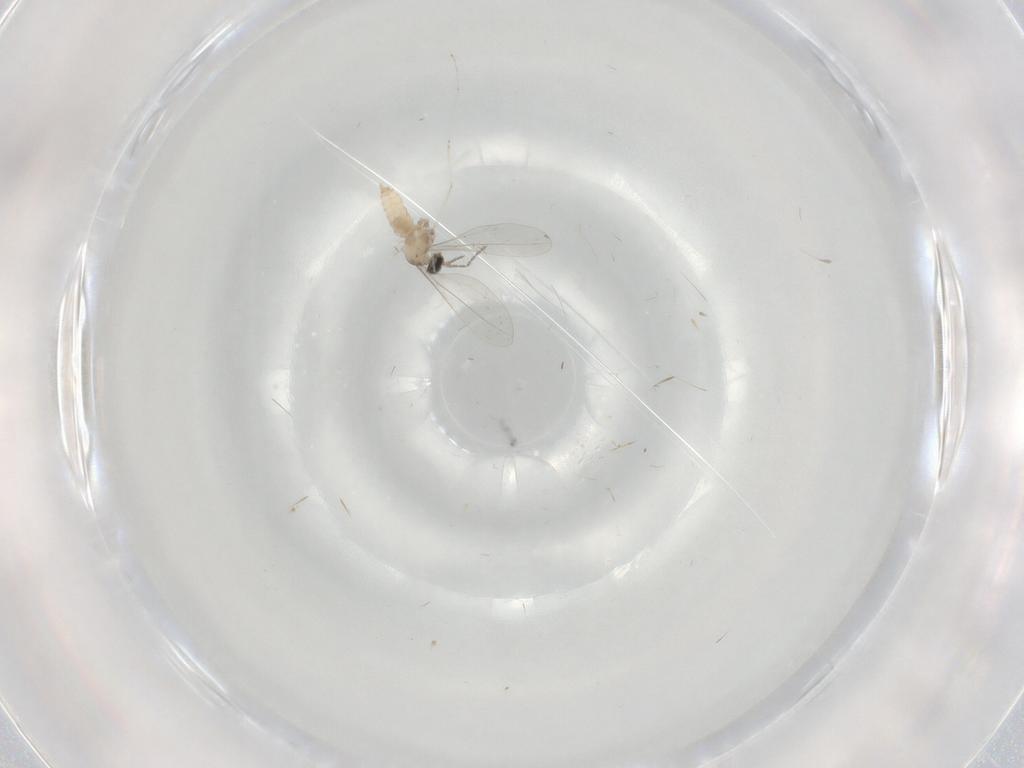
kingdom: Animalia
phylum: Arthropoda
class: Insecta
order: Diptera
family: Cecidomyiidae
